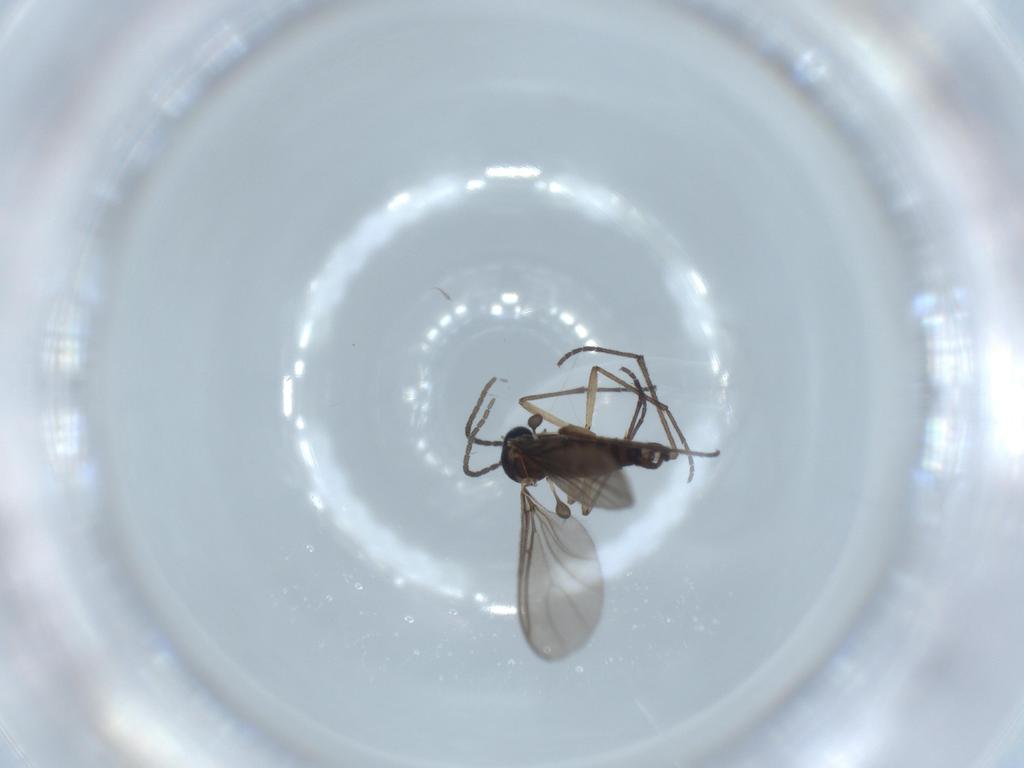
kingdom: Animalia
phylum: Arthropoda
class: Insecta
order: Diptera
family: Sciaridae
